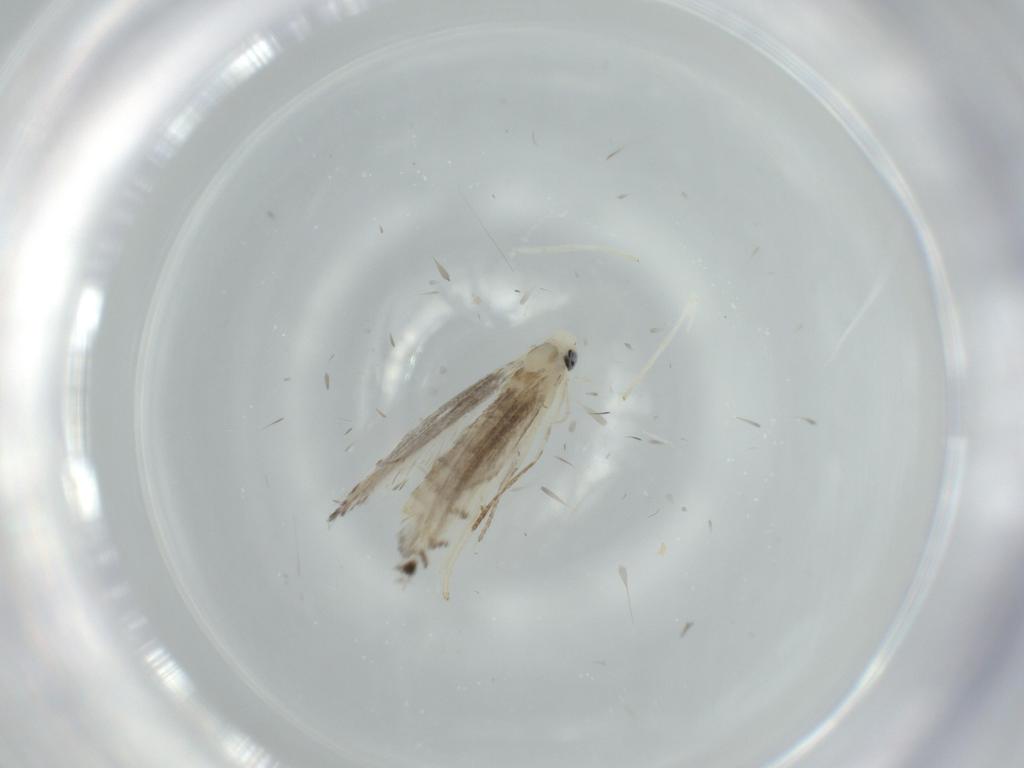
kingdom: Animalia
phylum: Arthropoda
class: Insecta
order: Lepidoptera
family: Gracillariidae
